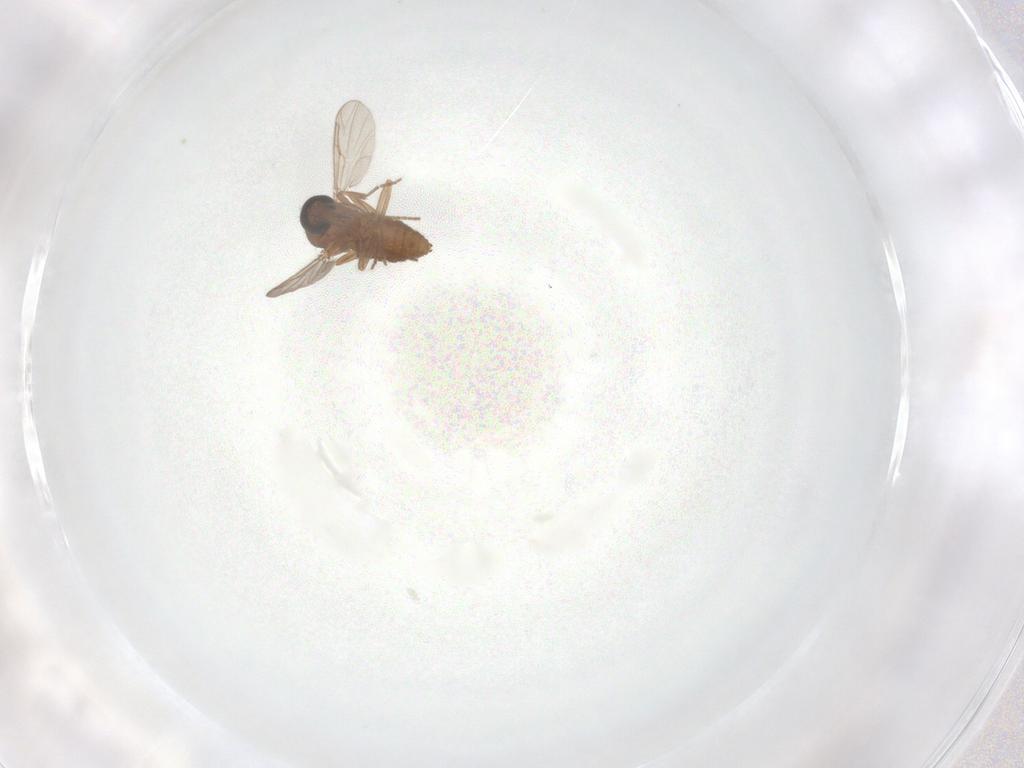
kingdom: Animalia
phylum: Arthropoda
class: Insecta
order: Diptera
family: Ceratopogonidae
